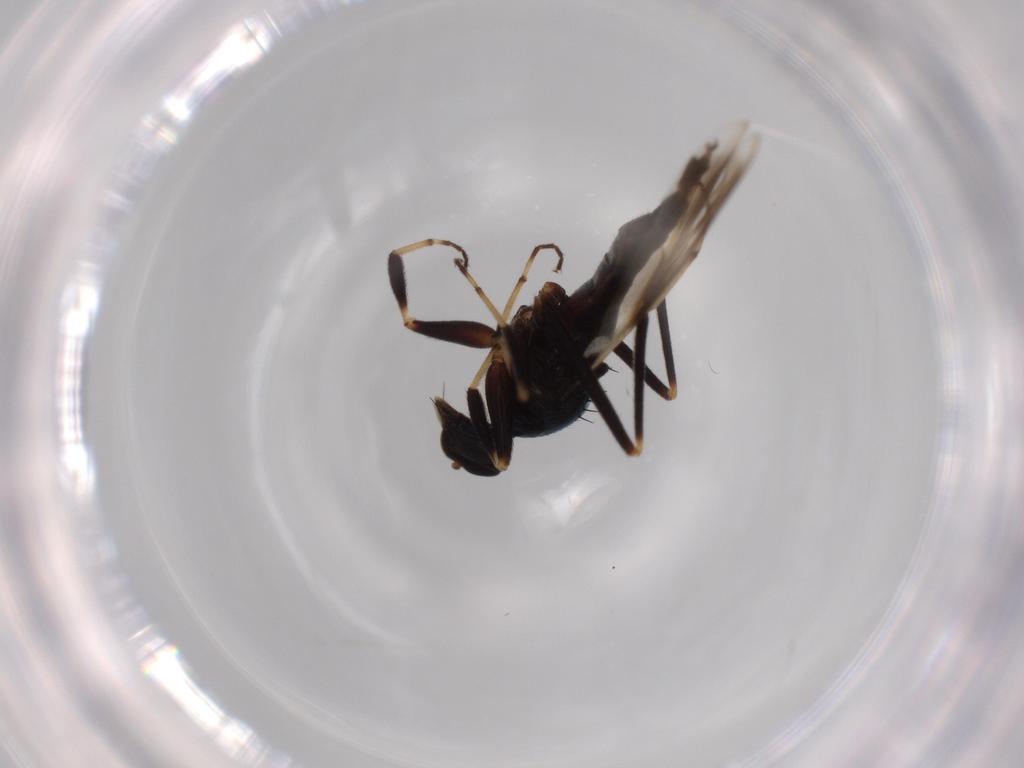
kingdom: Animalia
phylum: Arthropoda
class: Insecta
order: Diptera
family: Hybotidae
